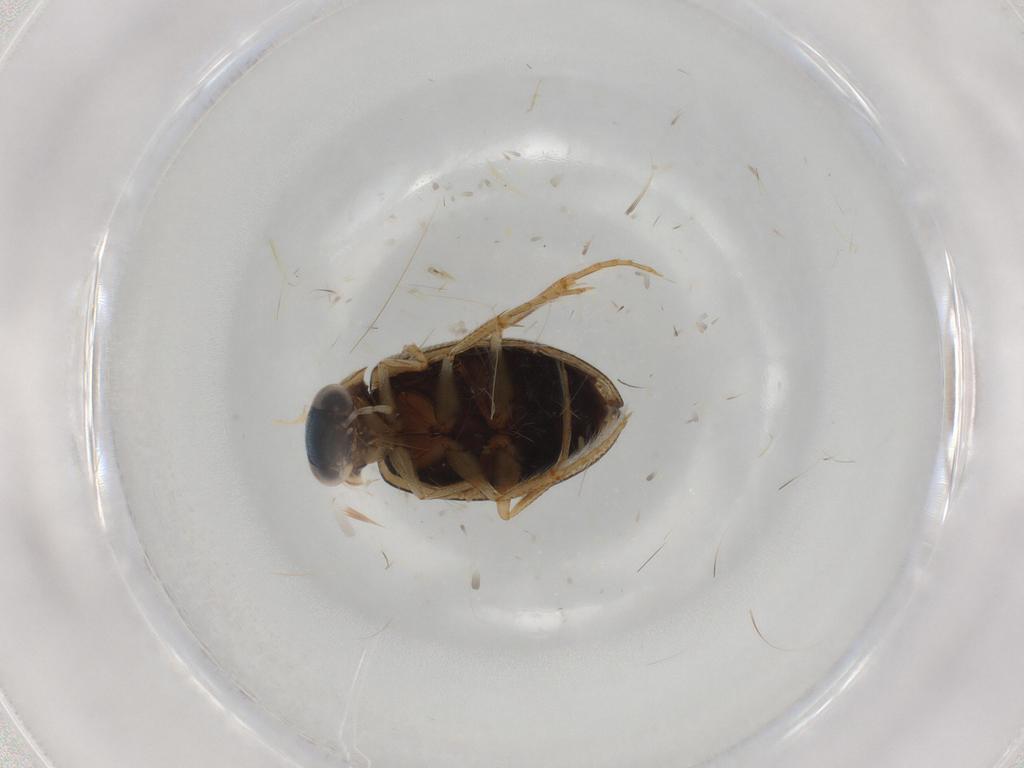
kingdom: Animalia
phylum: Arthropoda
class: Insecta
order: Coleoptera
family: Hydrophilidae
